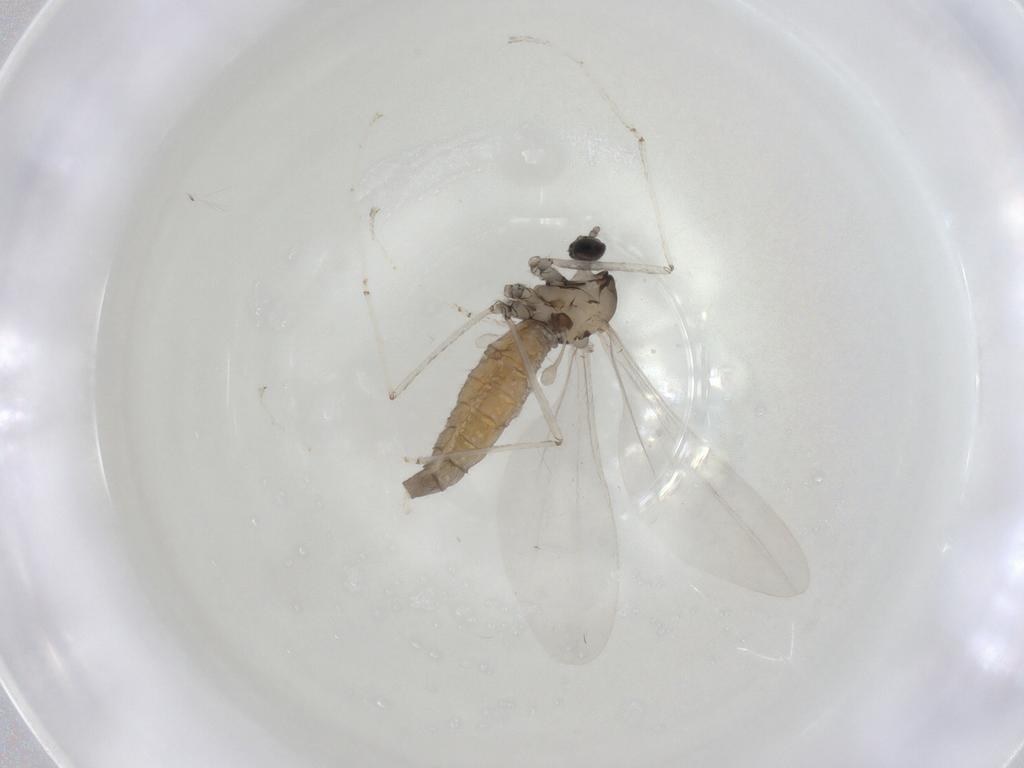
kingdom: Animalia
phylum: Arthropoda
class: Insecta
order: Diptera
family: Cecidomyiidae
